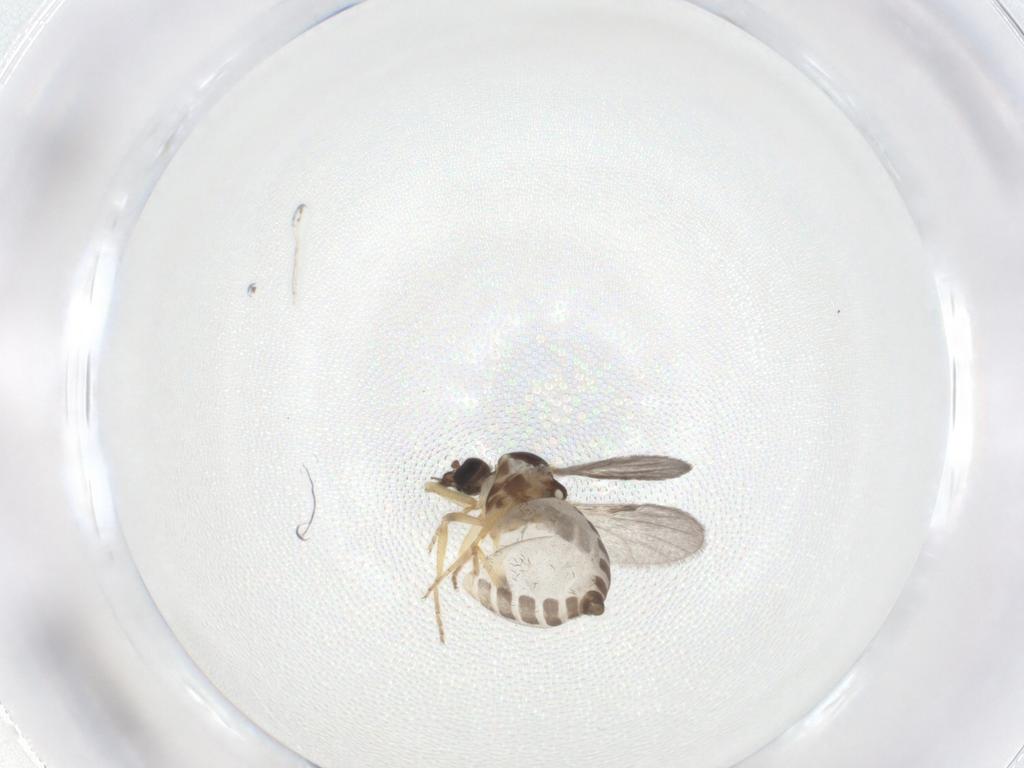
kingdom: Animalia
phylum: Arthropoda
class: Insecta
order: Diptera
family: Ceratopogonidae
